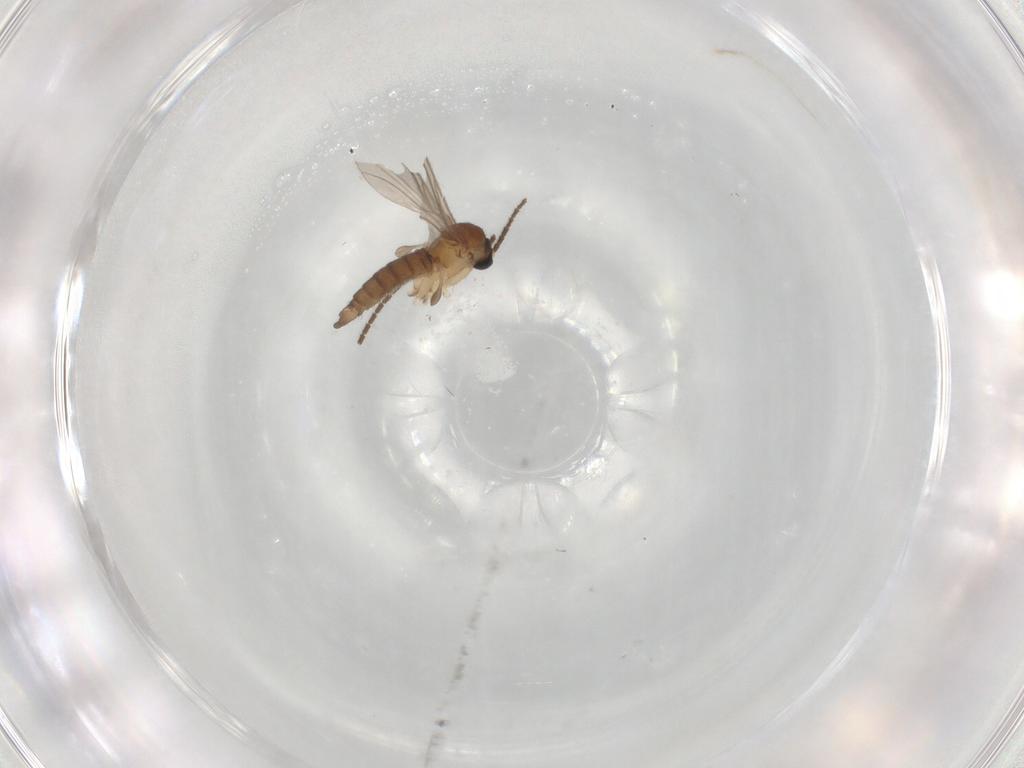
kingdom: Animalia
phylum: Arthropoda
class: Insecta
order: Diptera
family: Sciaridae
